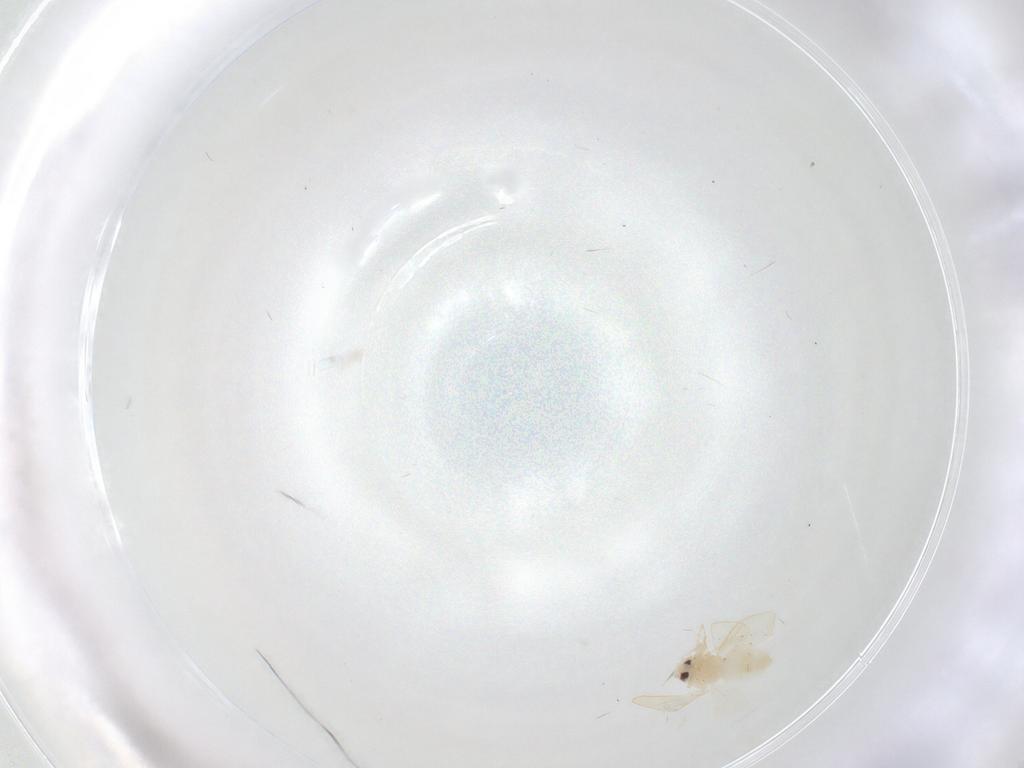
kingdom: Animalia
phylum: Arthropoda
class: Insecta
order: Hemiptera
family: Aleyrodidae
